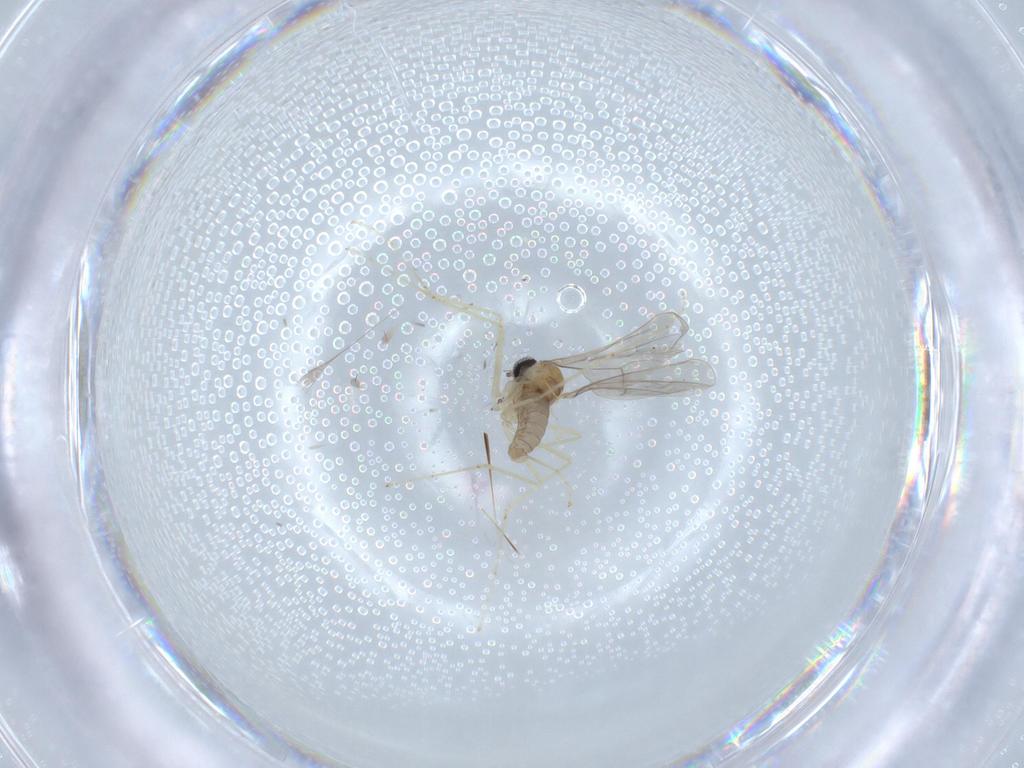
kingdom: Animalia
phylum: Arthropoda
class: Insecta
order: Diptera
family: Cecidomyiidae
